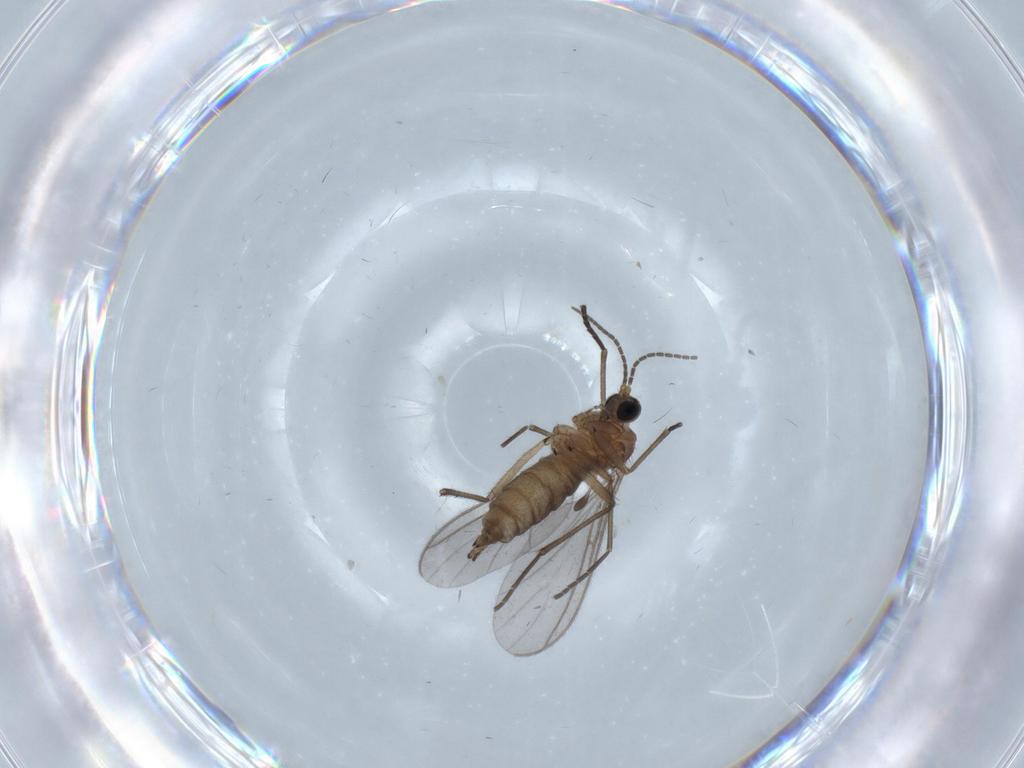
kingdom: Animalia
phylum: Arthropoda
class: Insecta
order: Diptera
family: Sciaridae
